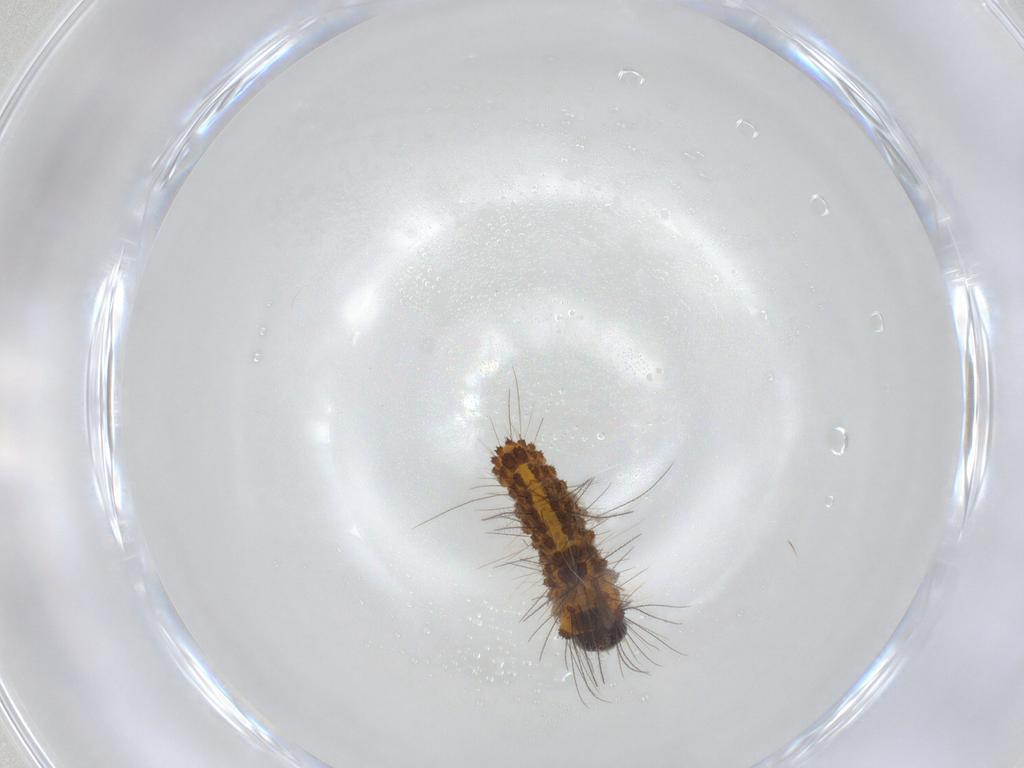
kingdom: Animalia
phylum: Arthropoda
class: Insecta
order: Lepidoptera
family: Erebidae
